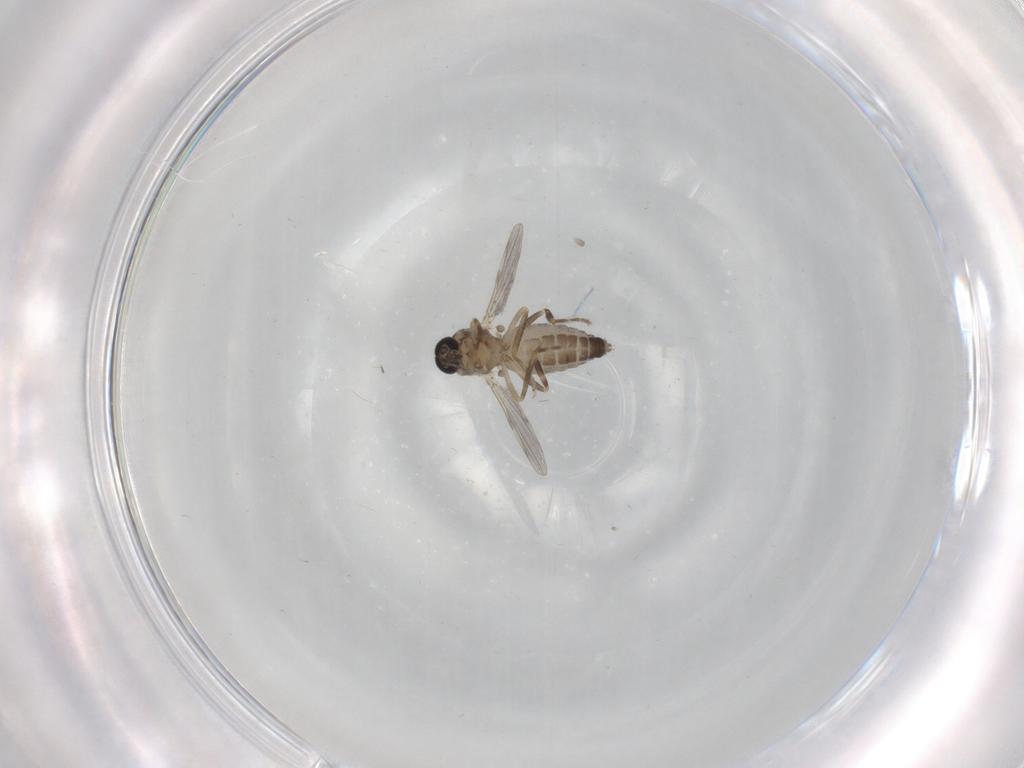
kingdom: Animalia
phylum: Arthropoda
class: Insecta
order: Diptera
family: Ceratopogonidae
